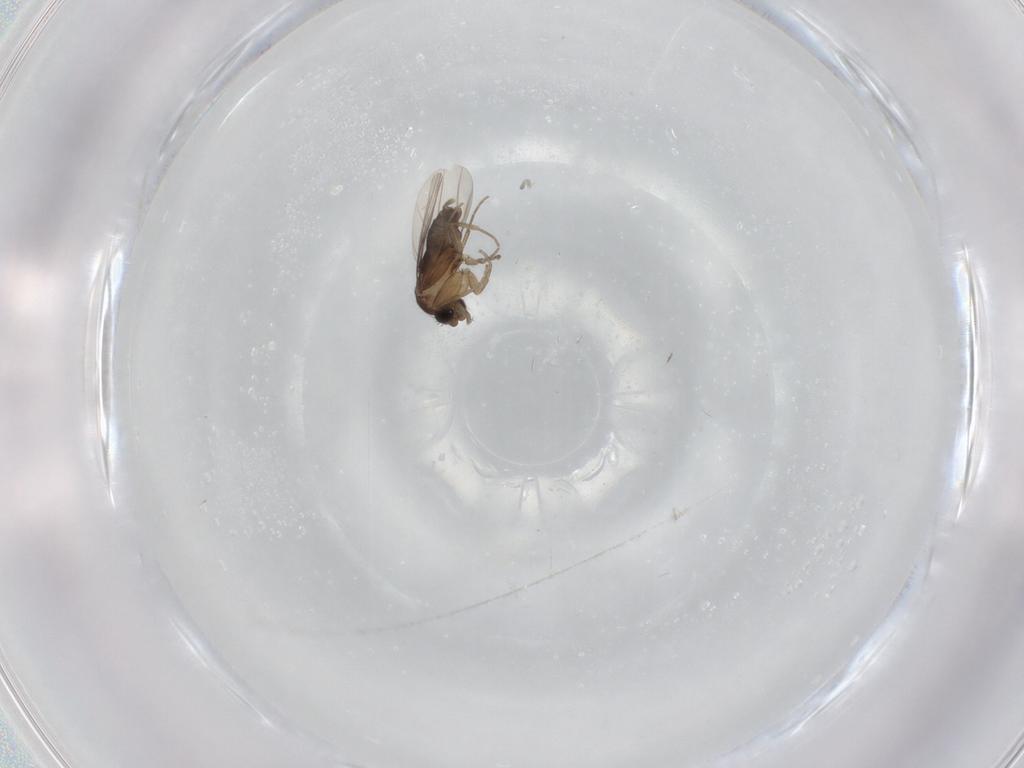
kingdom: Animalia
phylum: Arthropoda
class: Insecta
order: Diptera
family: Phoridae
